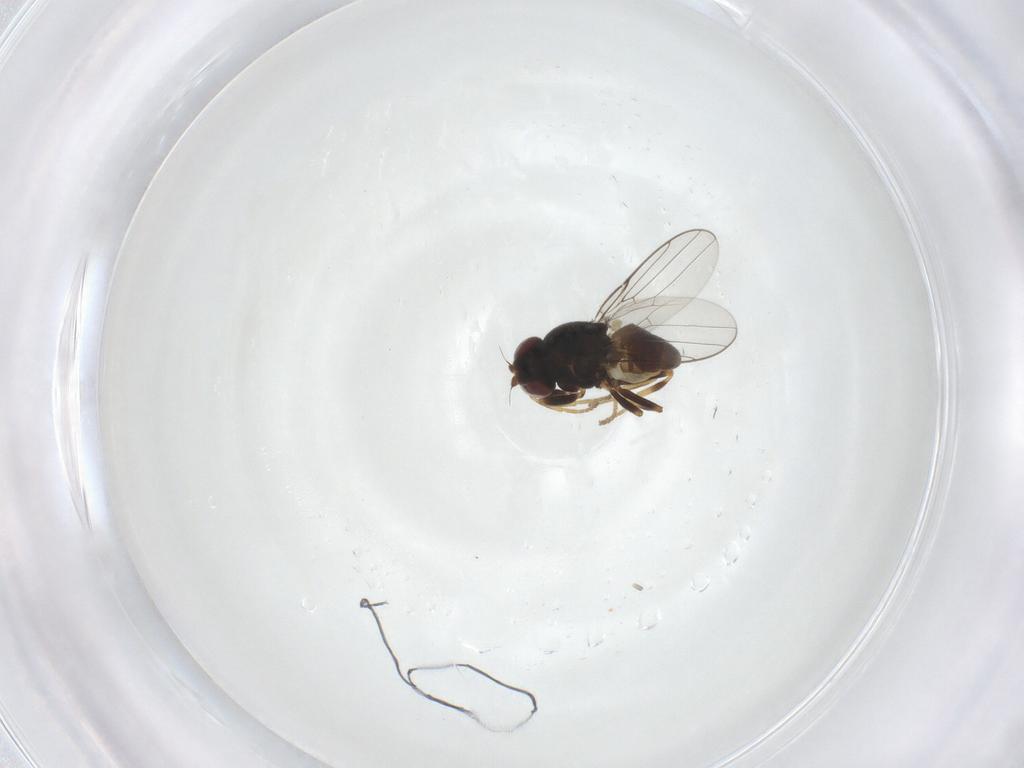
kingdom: Animalia
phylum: Arthropoda
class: Insecta
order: Diptera
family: Chloropidae
